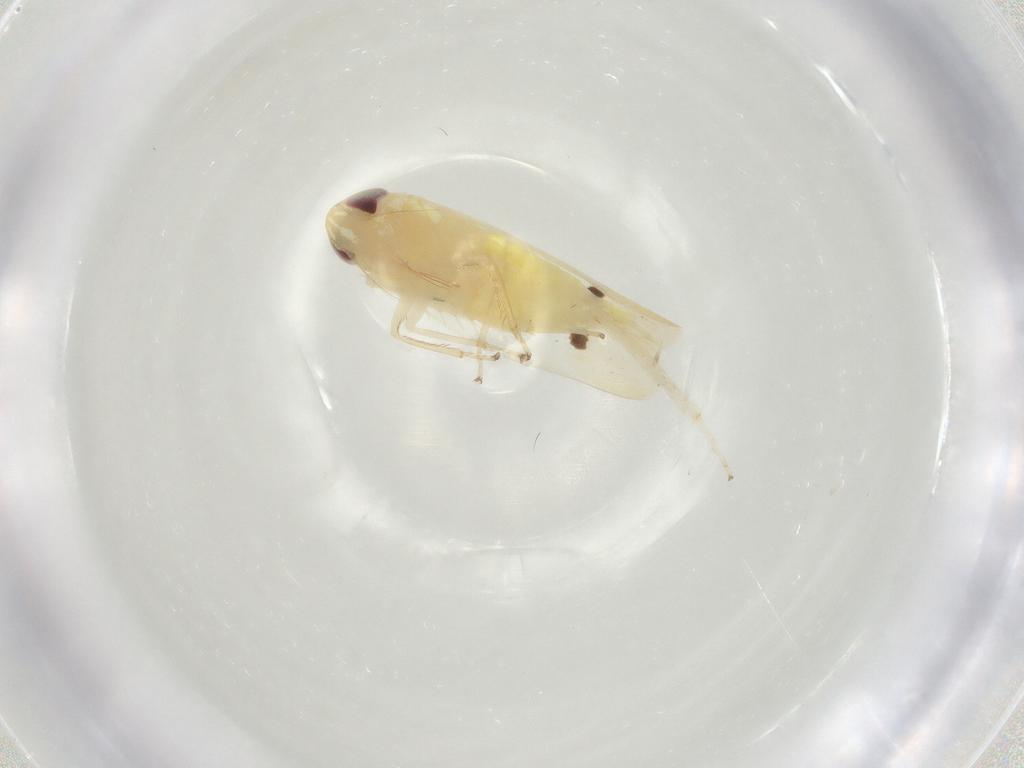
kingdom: Animalia
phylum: Arthropoda
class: Insecta
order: Hemiptera
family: Cicadellidae
